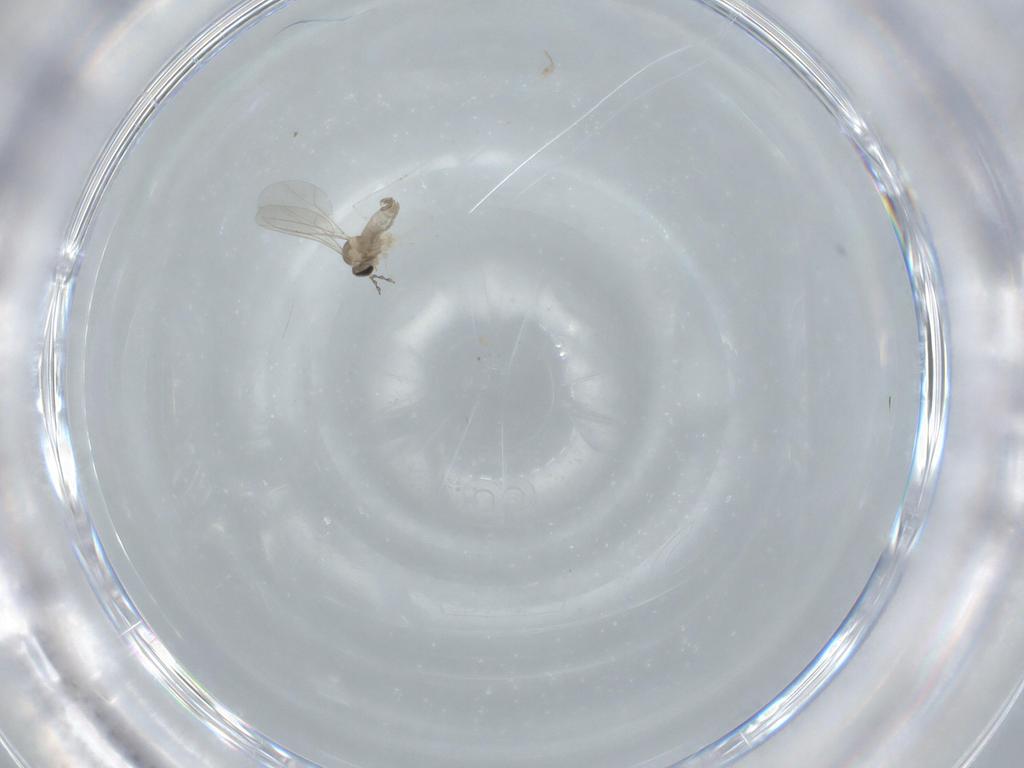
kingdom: Animalia
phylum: Arthropoda
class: Insecta
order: Diptera
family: Cecidomyiidae
